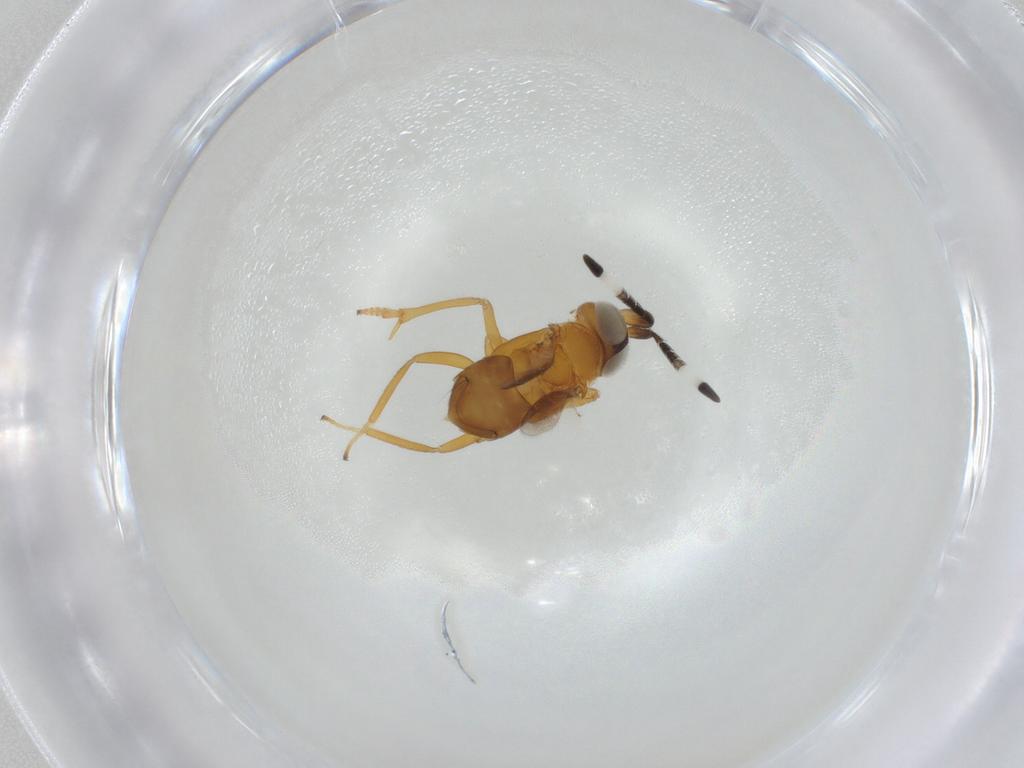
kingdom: Animalia
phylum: Arthropoda
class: Insecta
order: Hymenoptera
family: Encyrtidae
